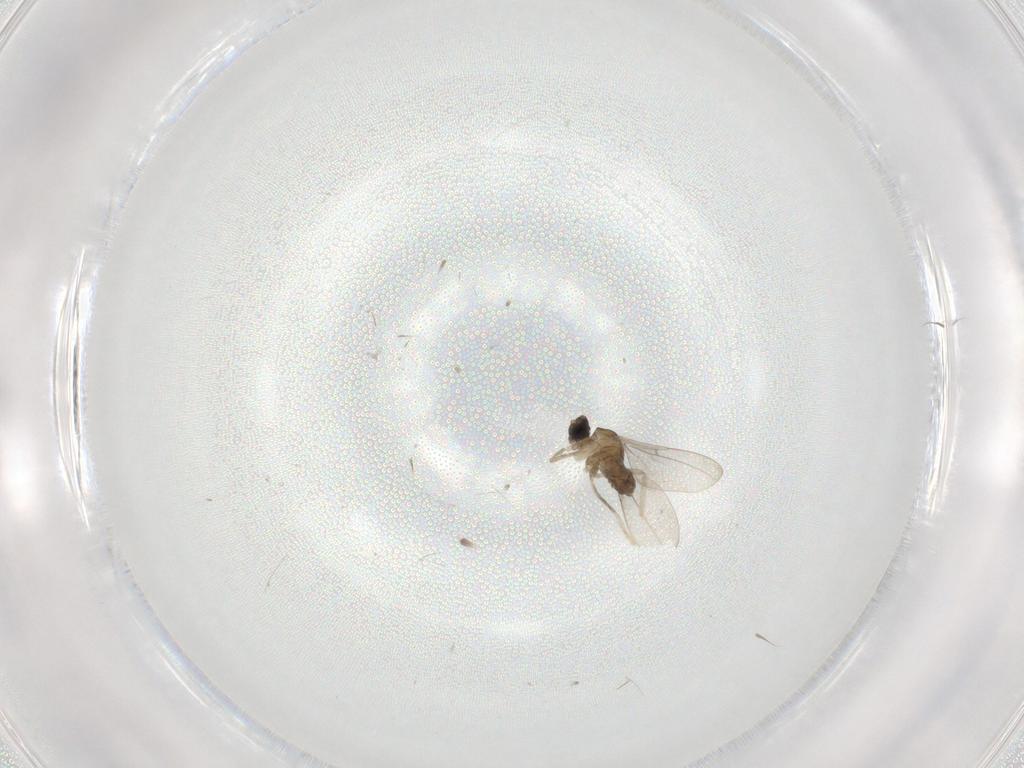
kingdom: Animalia
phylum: Arthropoda
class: Insecta
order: Diptera
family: Cecidomyiidae
